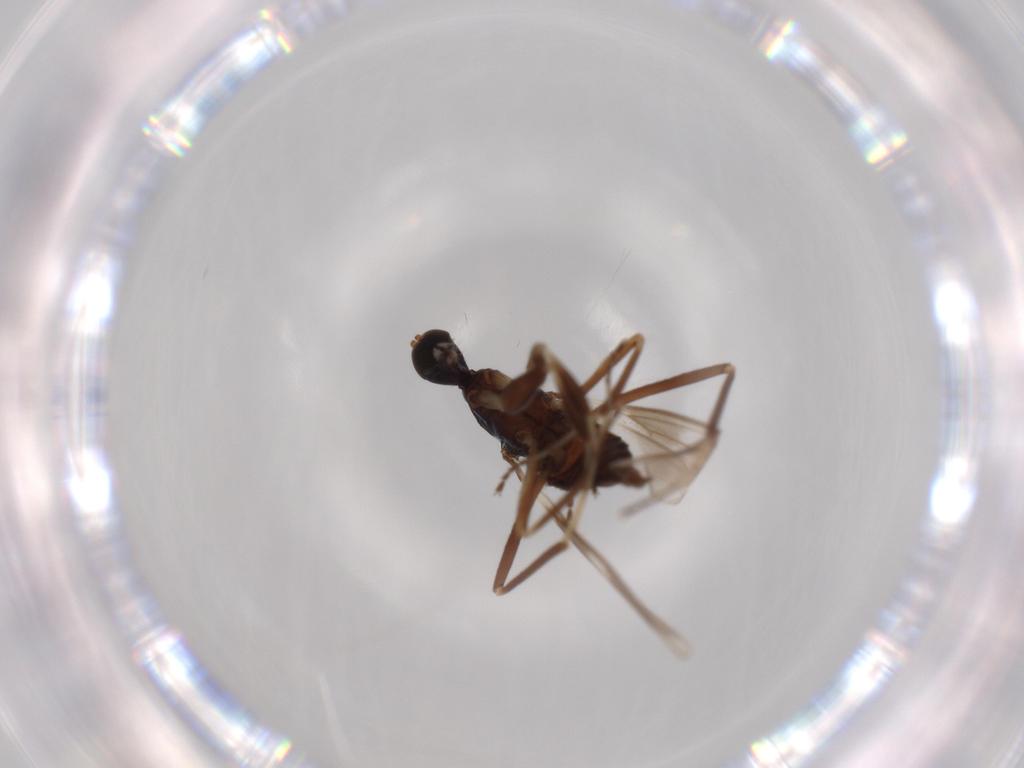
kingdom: Animalia
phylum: Arthropoda
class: Insecta
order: Diptera
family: Hybotidae
